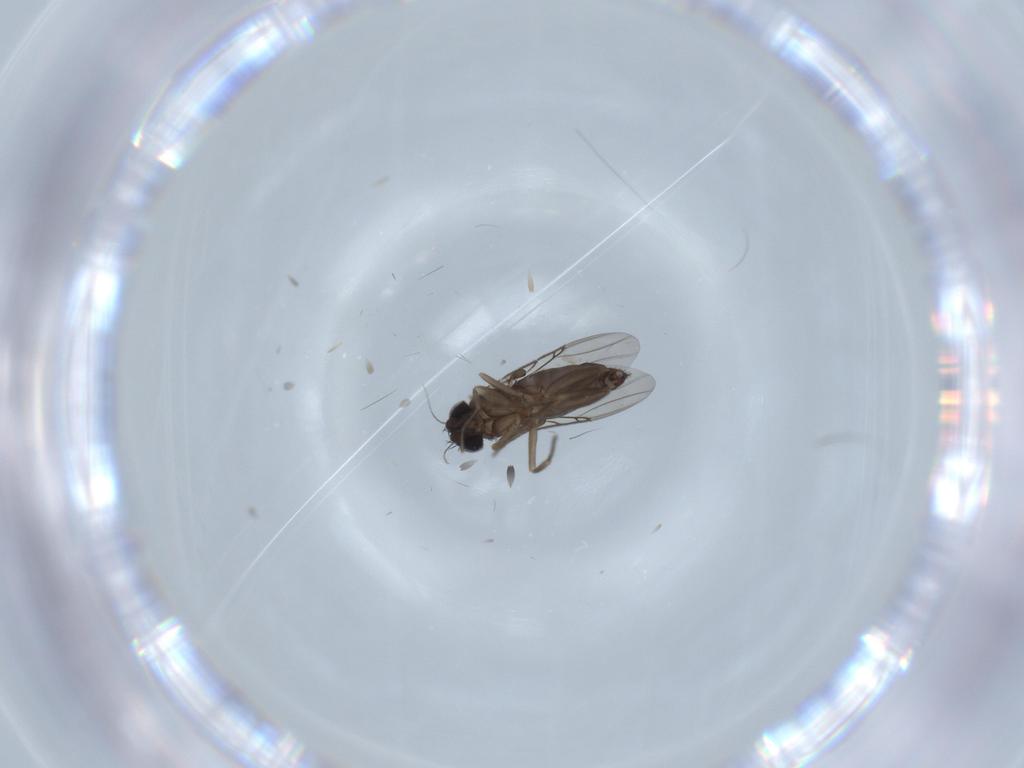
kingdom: Animalia
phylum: Arthropoda
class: Insecta
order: Diptera
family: Phoridae
